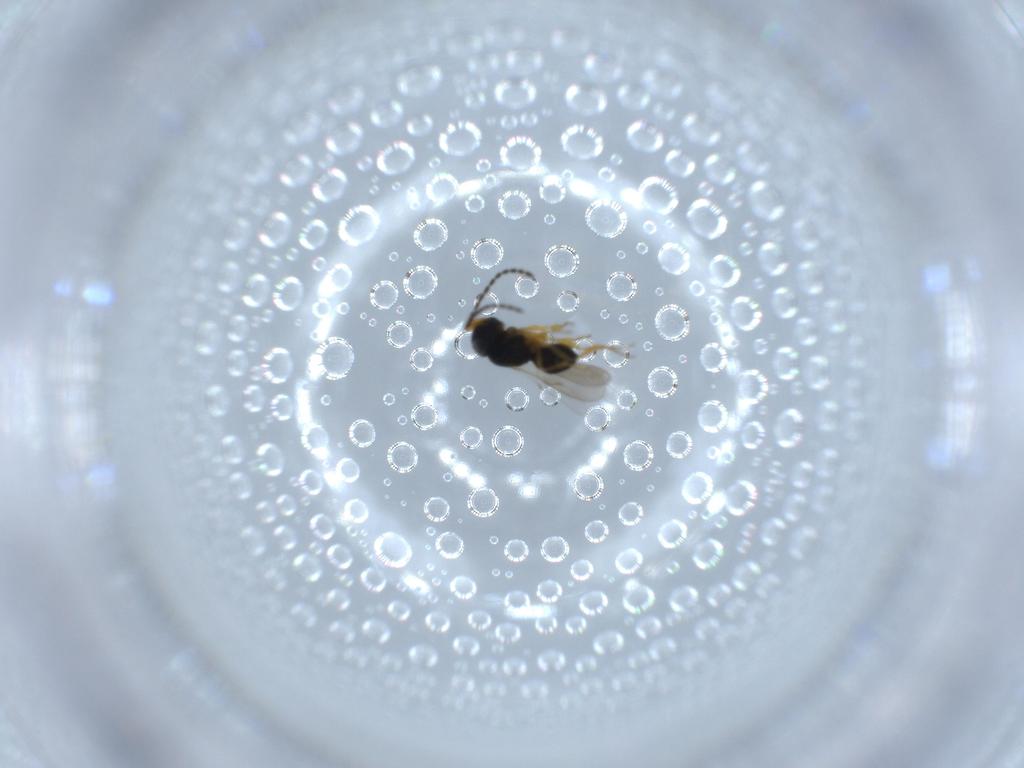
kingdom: Animalia
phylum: Arthropoda
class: Insecta
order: Hymenoptera
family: Scelionidae
